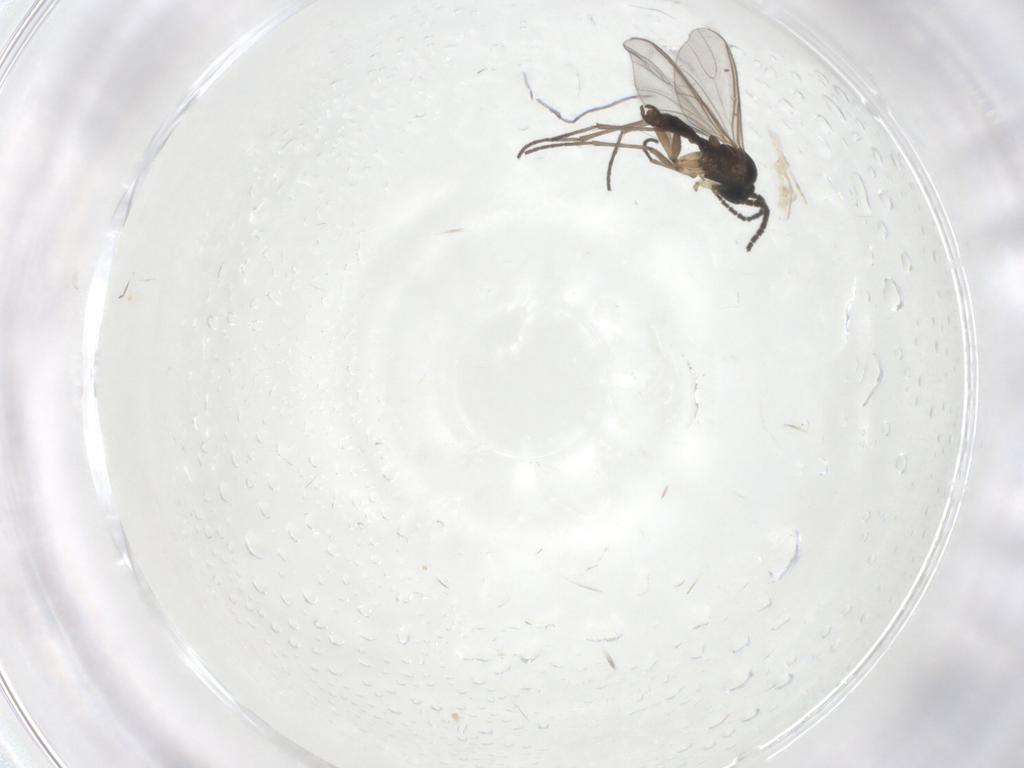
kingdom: Animalia
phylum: Arthropoda
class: Insecta
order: Diptera
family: Sciaridae
